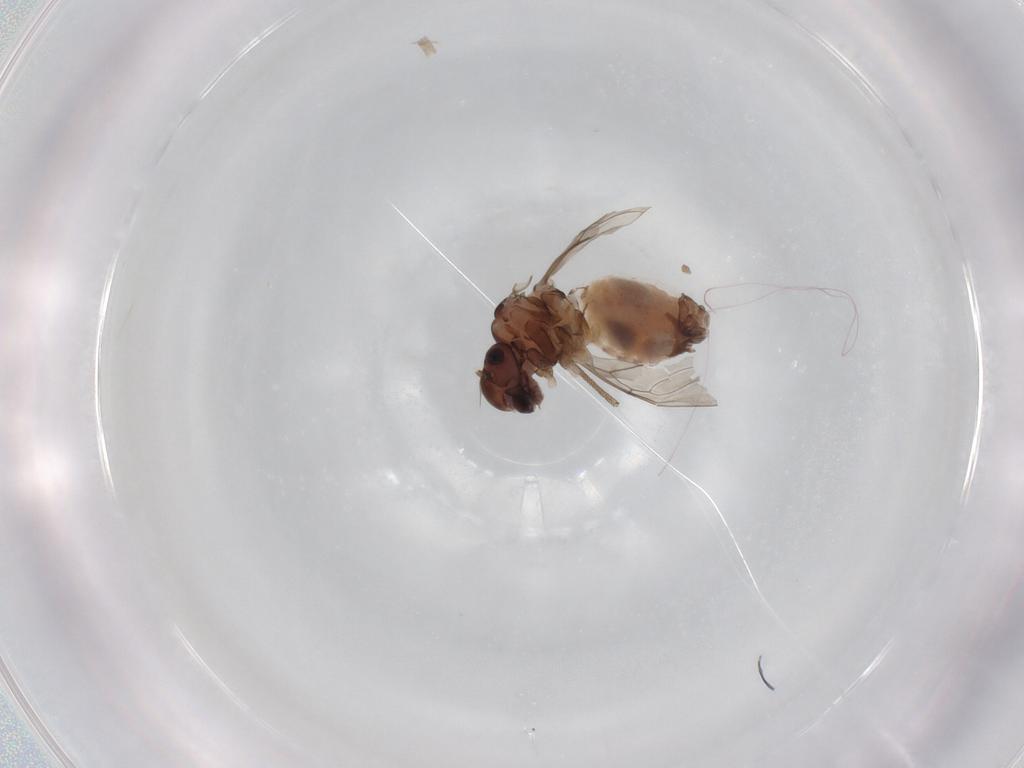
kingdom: Animalia
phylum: Arthropoda
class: Insecta
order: Psocodea
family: Peripsocidae
